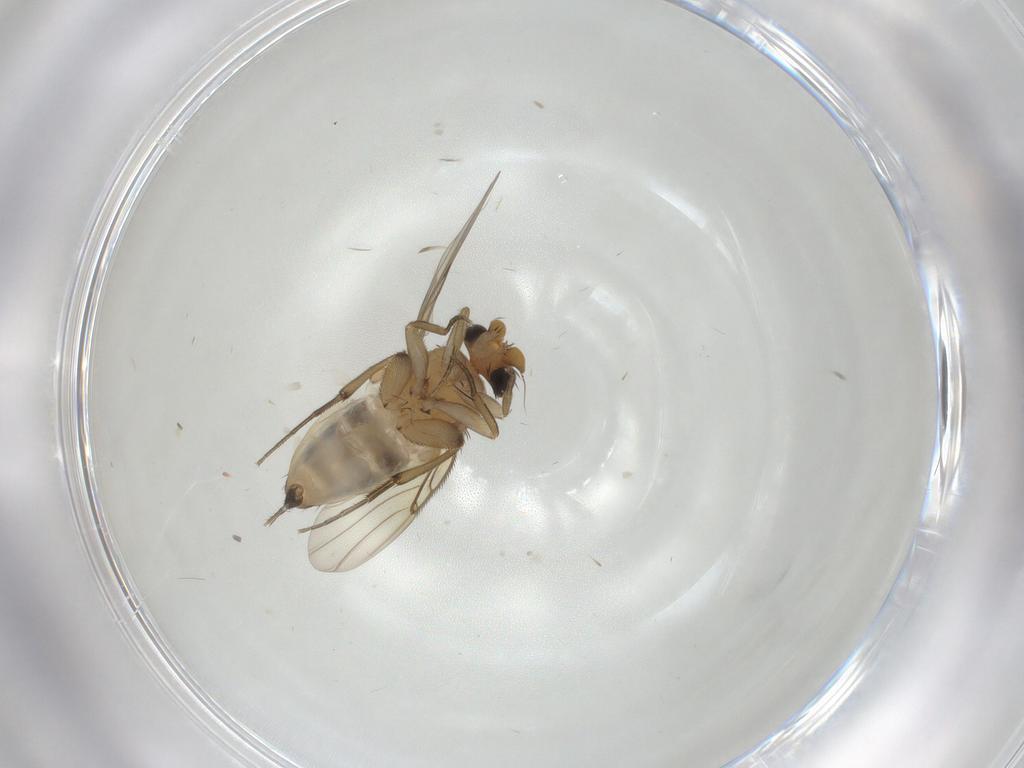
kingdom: Animalia
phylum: Arthropoda
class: Insecta
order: Diptera
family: Phoridae
